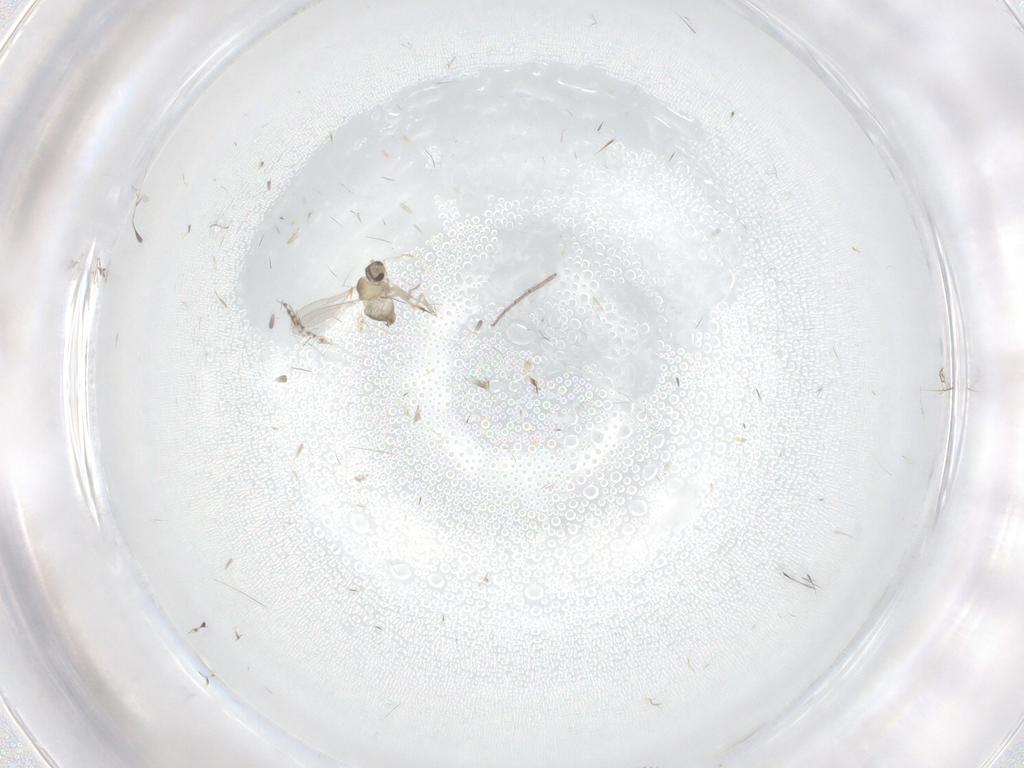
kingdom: Animalia
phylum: Arthropoda
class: Insecta
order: Diptera
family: Cecidomyiidae
